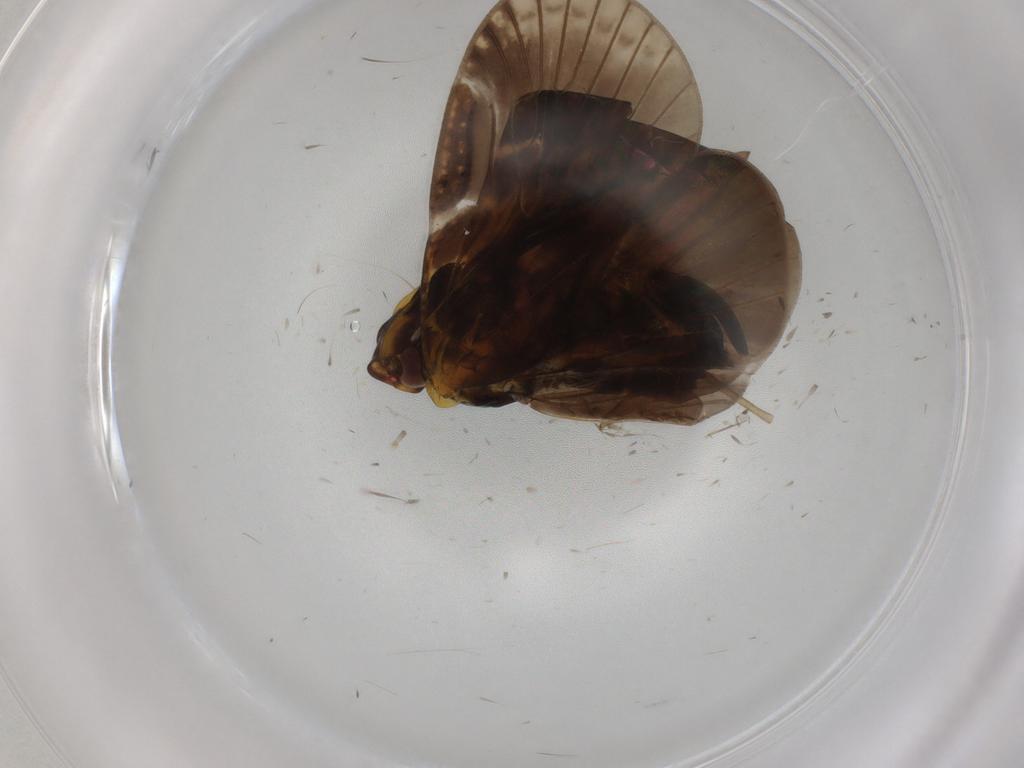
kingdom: Animalia
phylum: Arthropoda
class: Insecta
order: Hemiptera
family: Cixiidae
